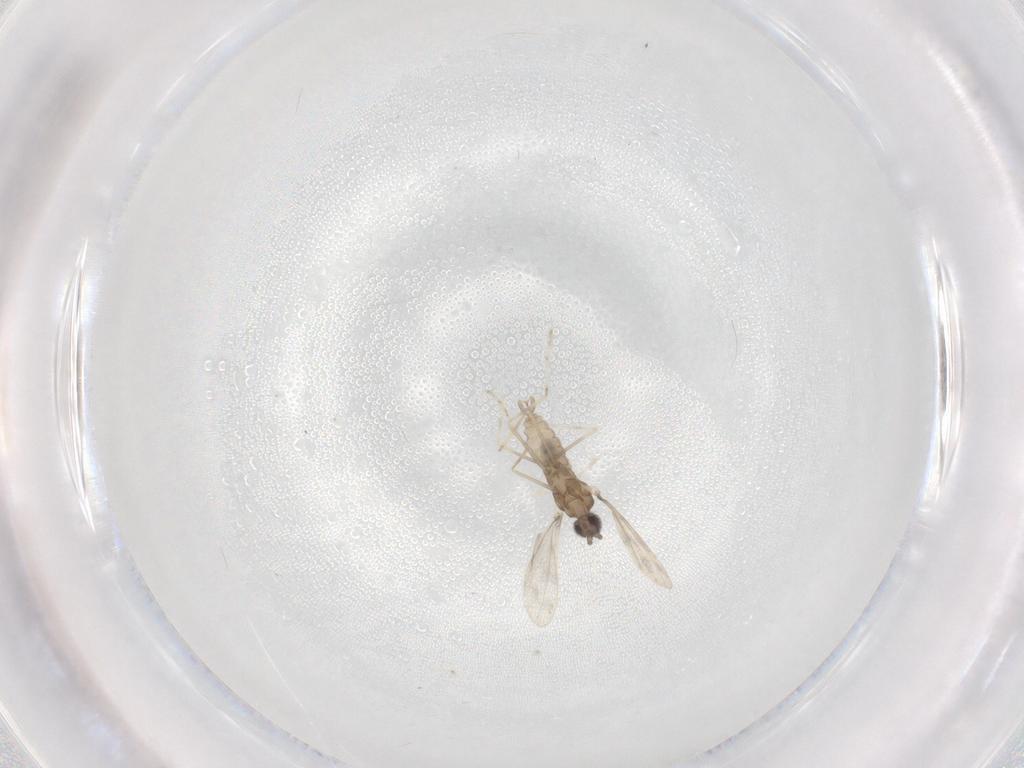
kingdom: Animalia
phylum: Arthropoda
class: Insecta
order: Diptera
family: Cecidomyiidae
